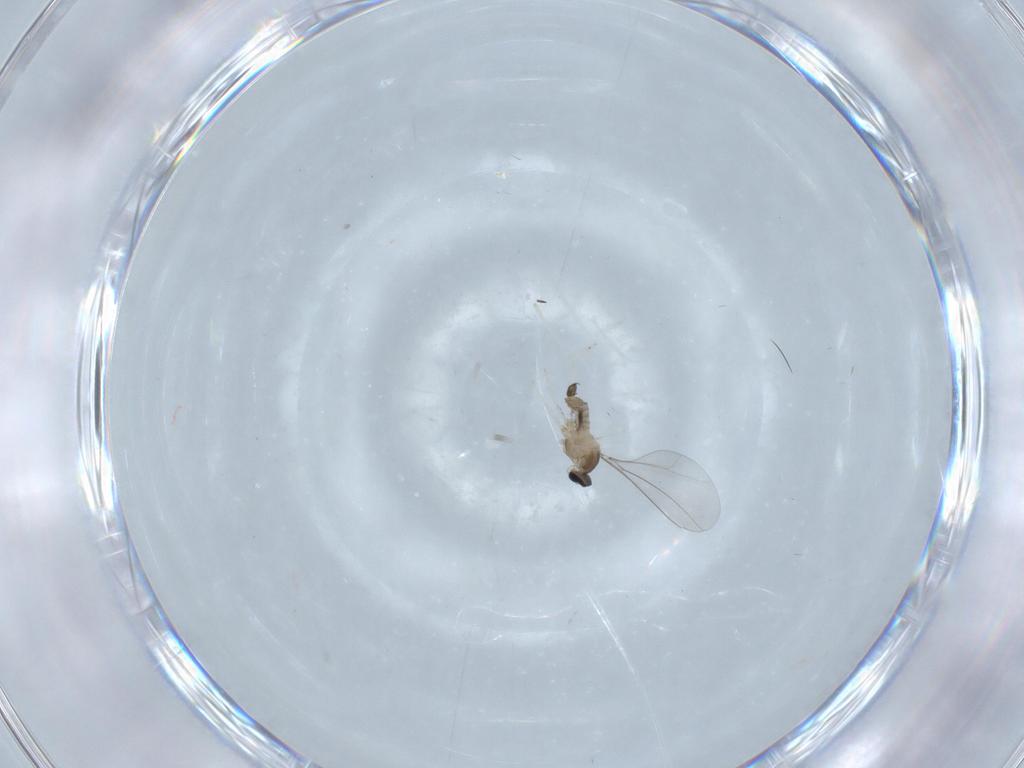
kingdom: Animalia
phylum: Arthropoda
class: Insecta
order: Diptera
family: Cecidomyiidae
